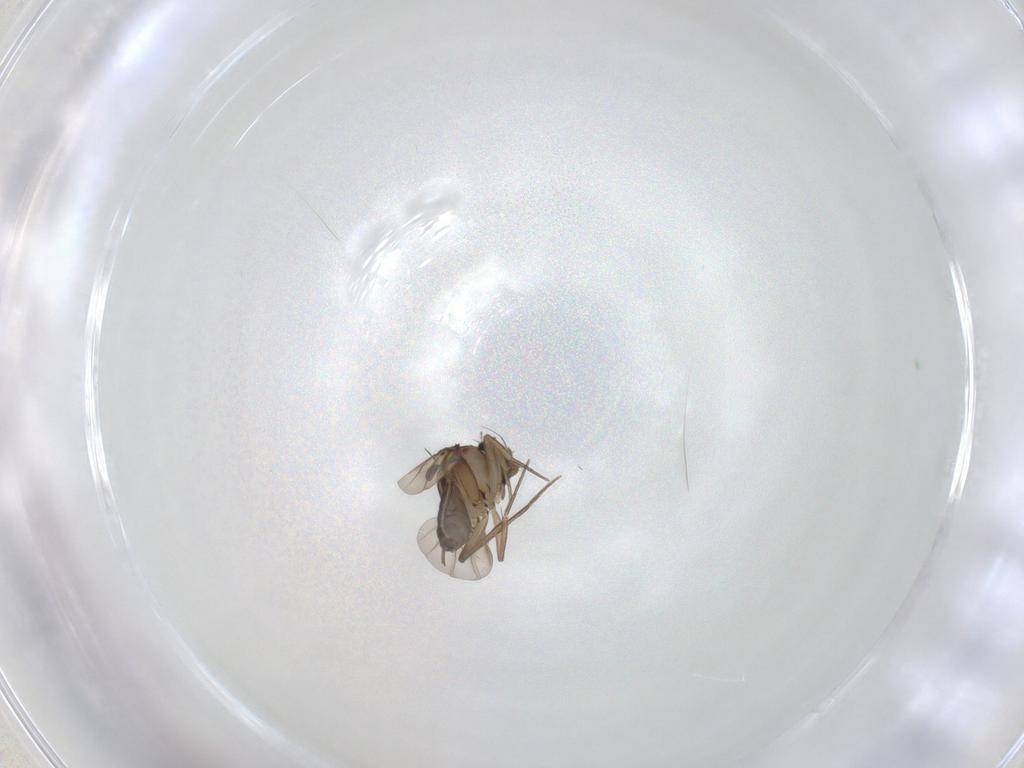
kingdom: Animalia
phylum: Arthropoda
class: Insecta
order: Diptera
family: Phoridae
